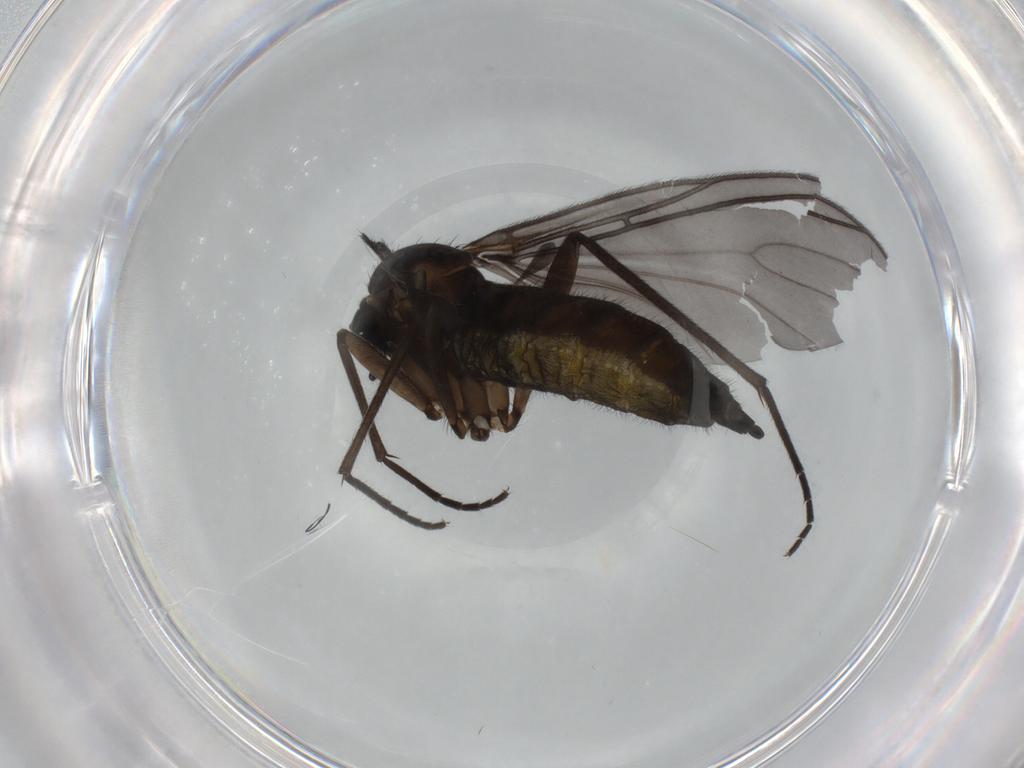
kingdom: Animalia
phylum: Arthropoda
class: Insecta
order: Diptera
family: Sciaridae
